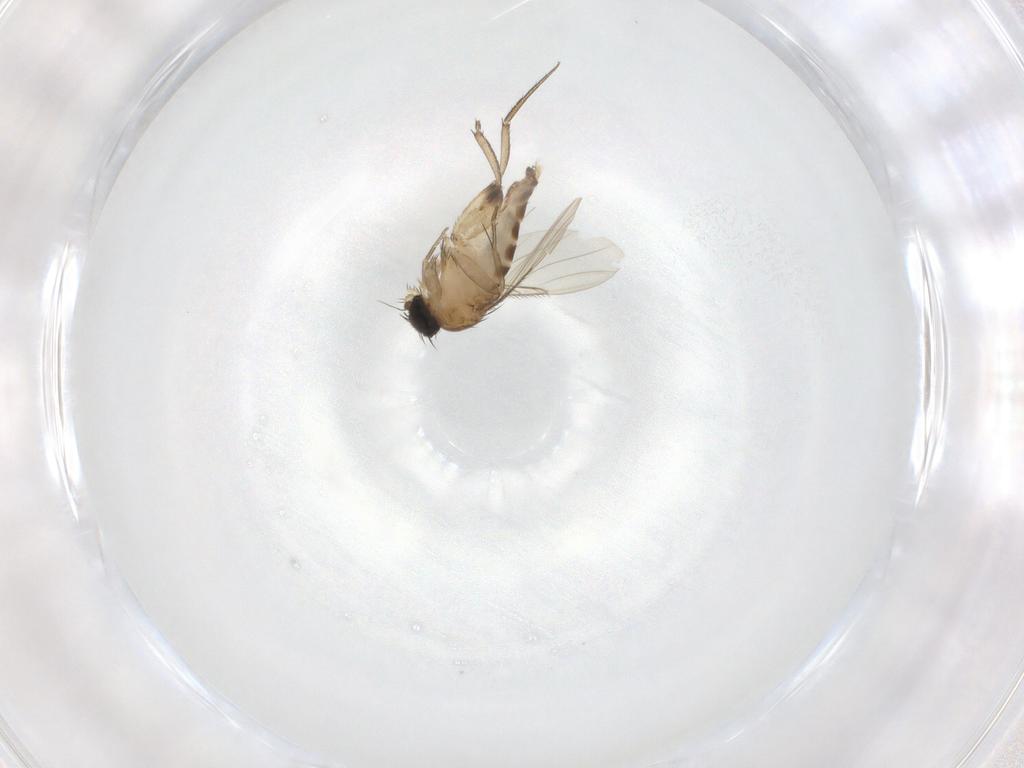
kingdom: Animalia
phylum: Arthropoda
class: Insecta
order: Diptera
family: Phoridae
